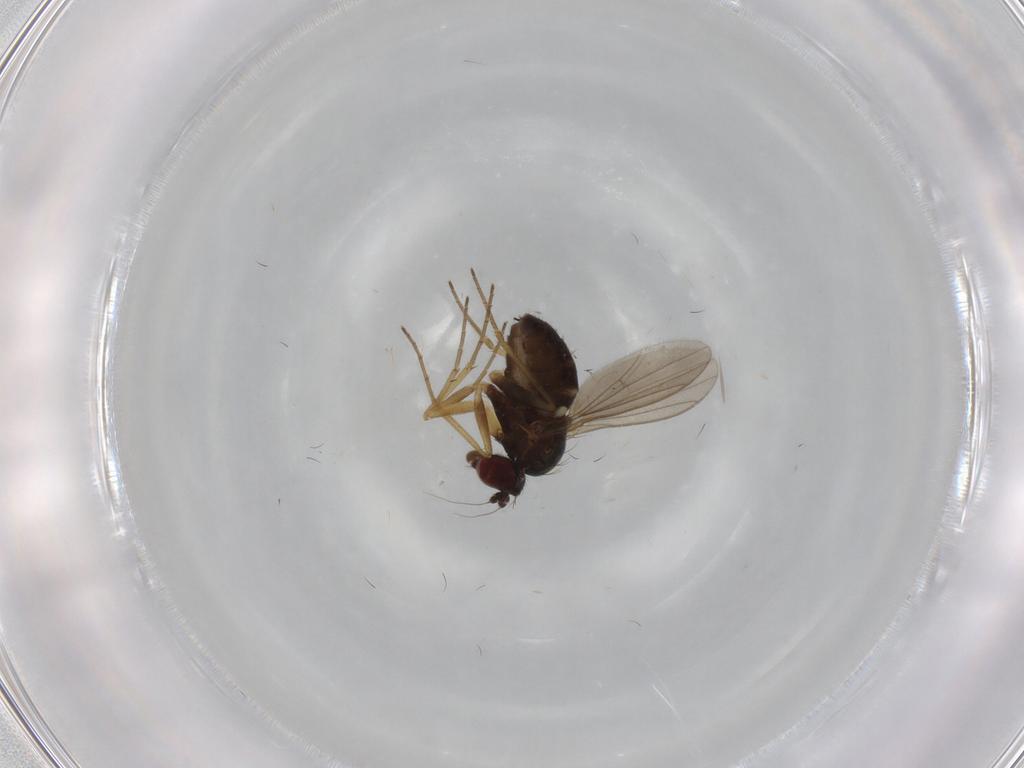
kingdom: Animalia
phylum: Arthropoda
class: Insecta
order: Diptera
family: Dolichopodidae
